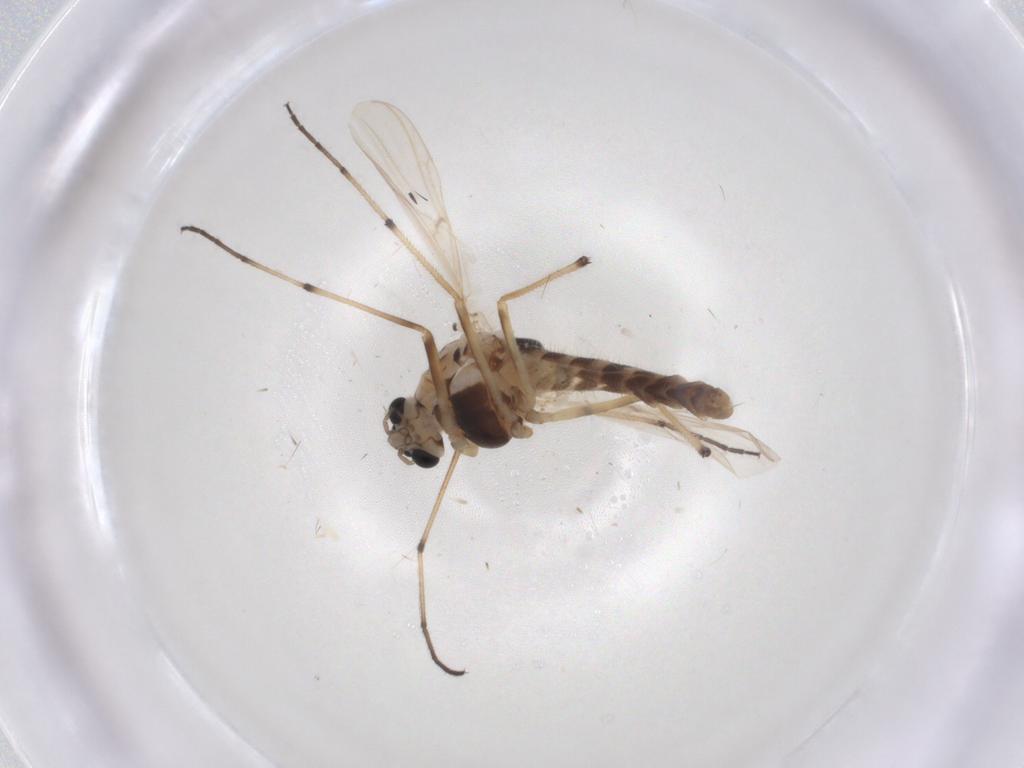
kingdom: Animalia
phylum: Arthropoda
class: Insecta
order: Diptera
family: Chironomidae
